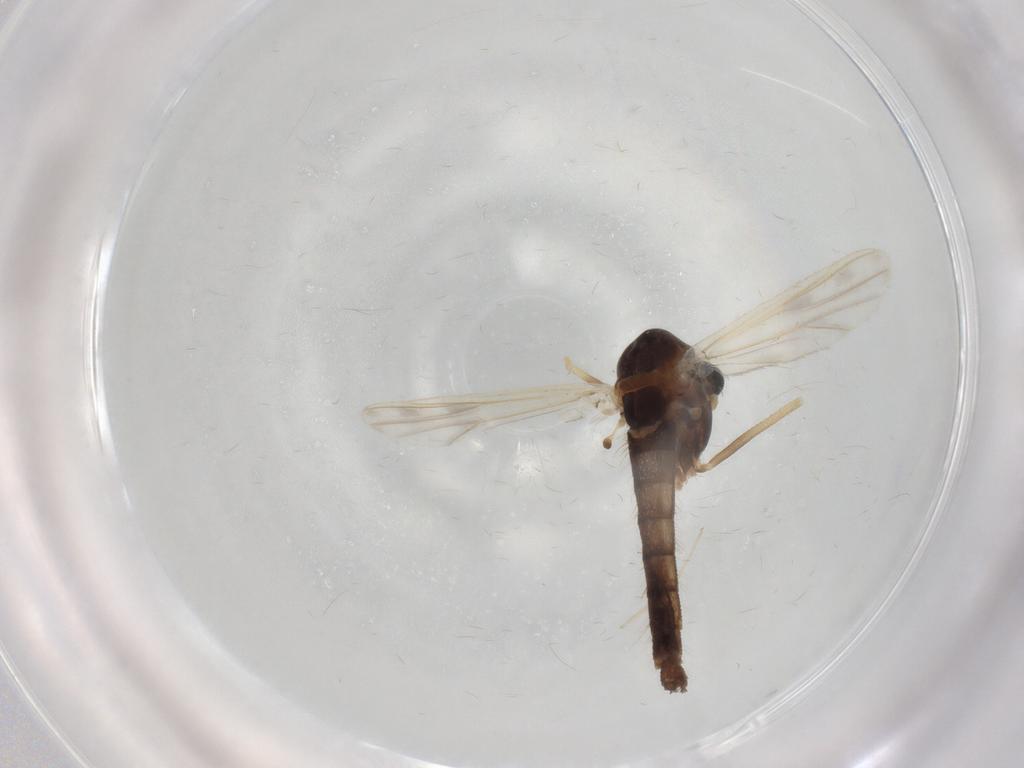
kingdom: Animalia
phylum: Arthropoda
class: Insecta
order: Diptera
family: Chironomidae
